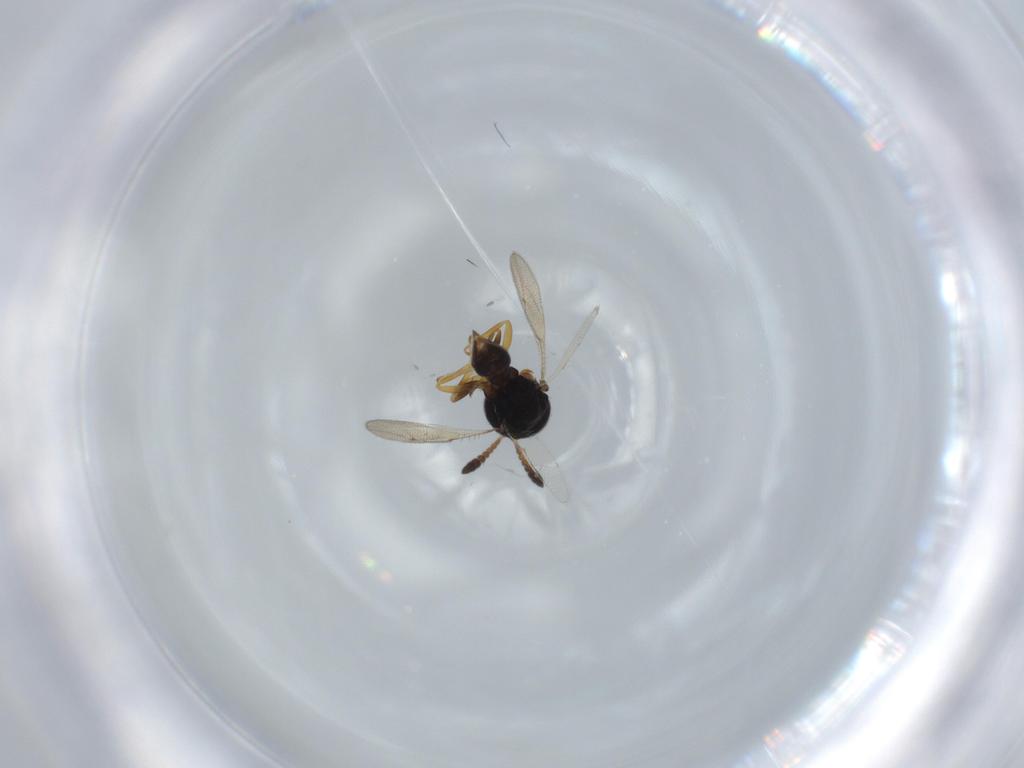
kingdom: Animalia
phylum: Arthropoda
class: Insecta
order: Hymenoptera
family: Pteromalidae
